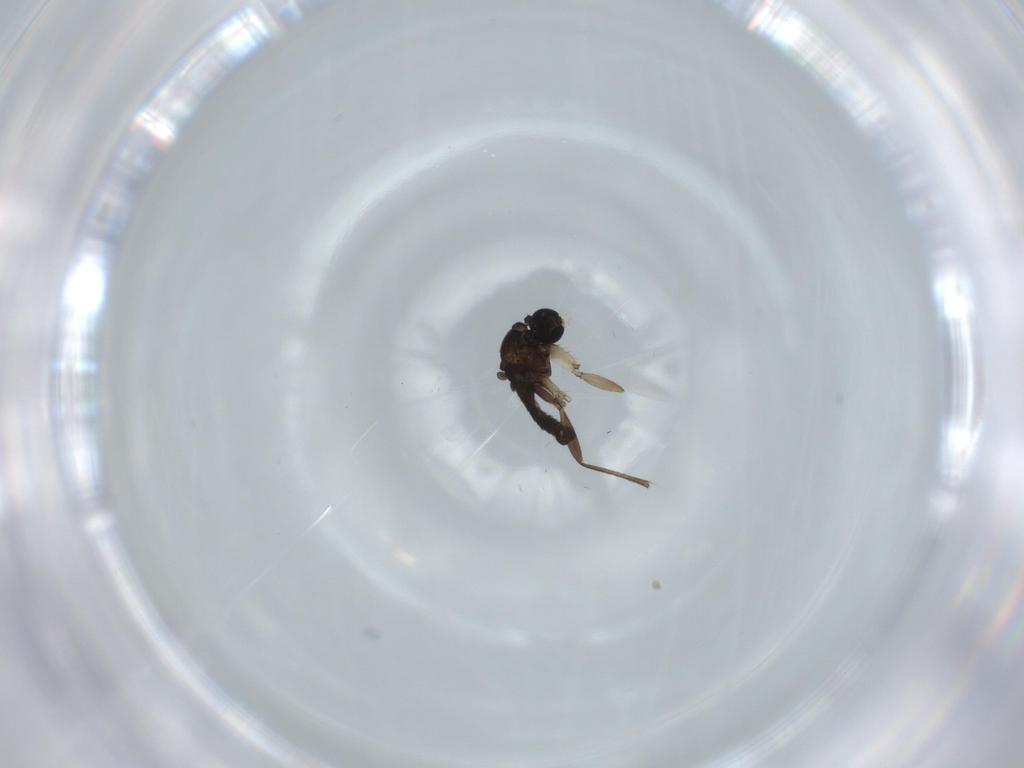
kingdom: Animalia
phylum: Arthropoda
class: Insecta
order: Diptera
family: Sciaridae
